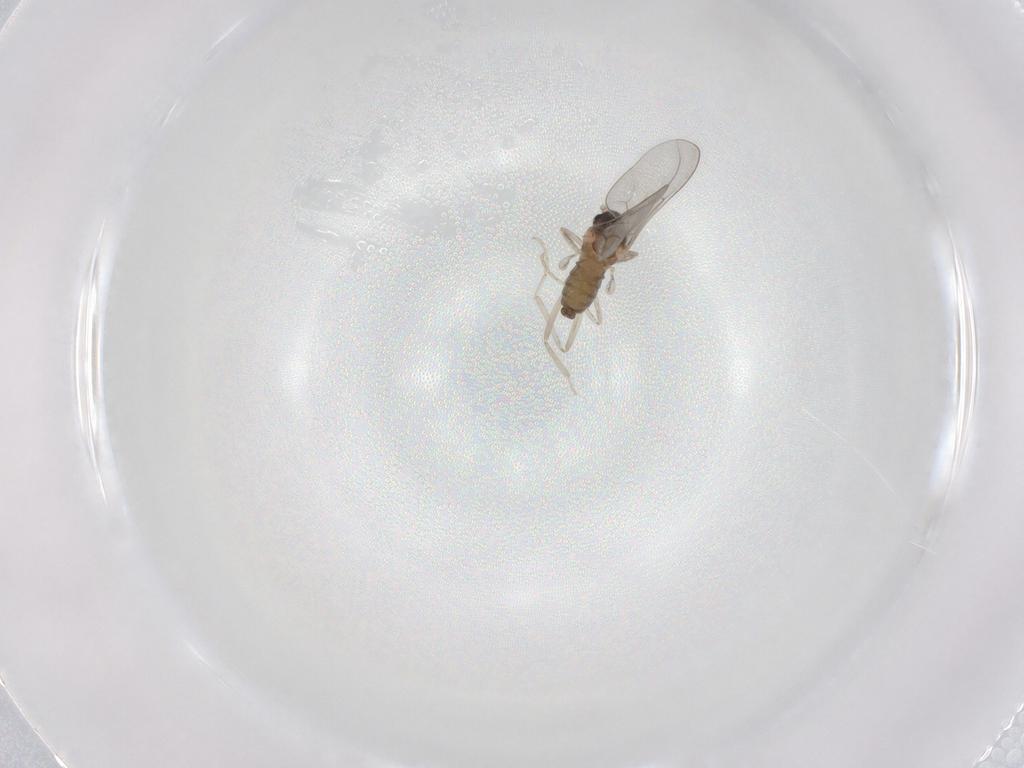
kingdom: Animalia
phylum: Arthropoda
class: Insecta
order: Diptera
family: Cecidomyiidae
